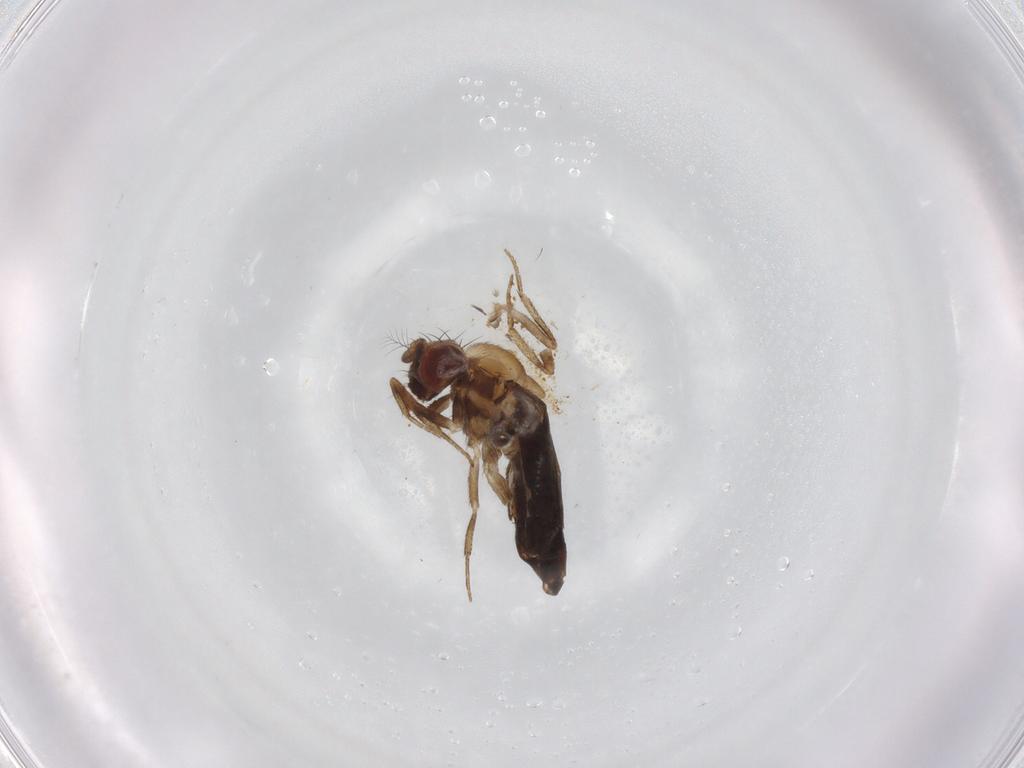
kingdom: Animalia
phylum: Arthropoda
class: Insecta
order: Diptera
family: Drosophilidae
